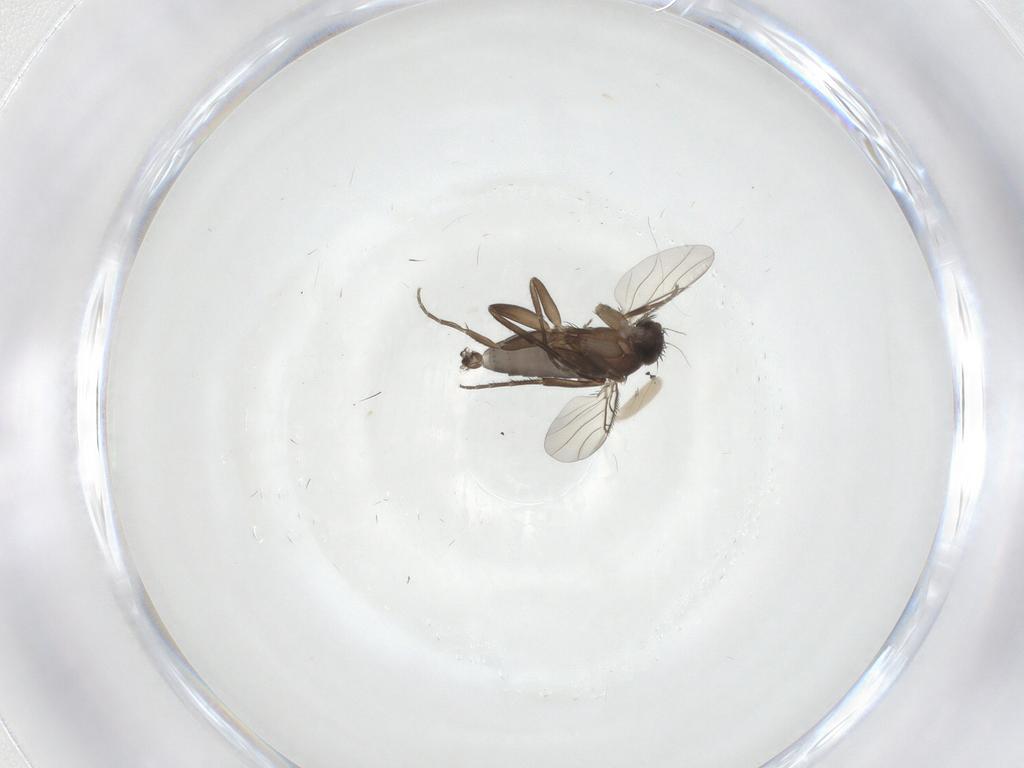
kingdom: Animalia
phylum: Arthropoda
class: Insecta
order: Diptera
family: Phoridae
